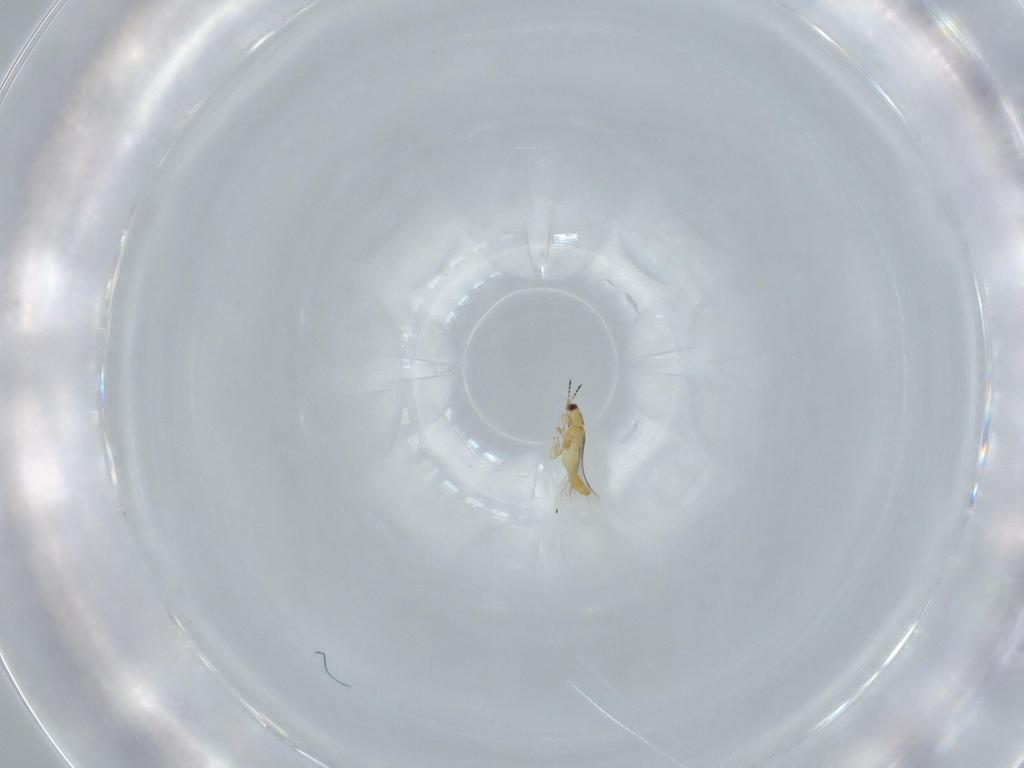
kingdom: Animalia
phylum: Arthropoda
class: Insecta
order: Thysanoptera
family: Thripidae
